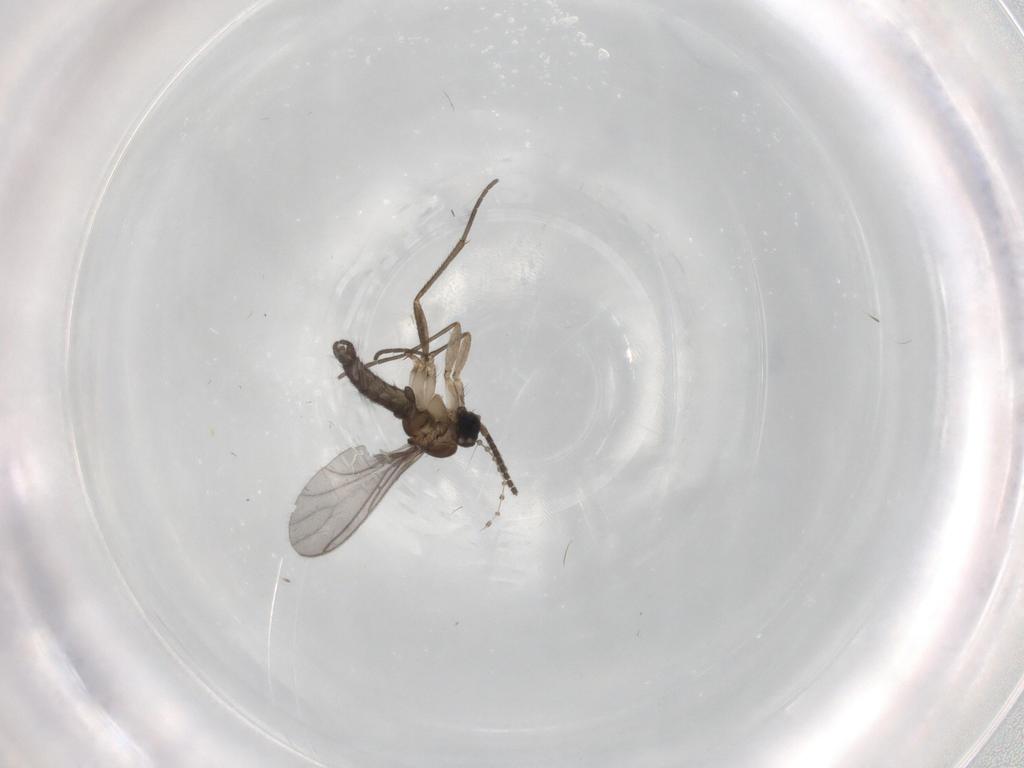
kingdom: Animalia
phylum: Arthropoda
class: Insecta
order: Diptera
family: Sciaridae
